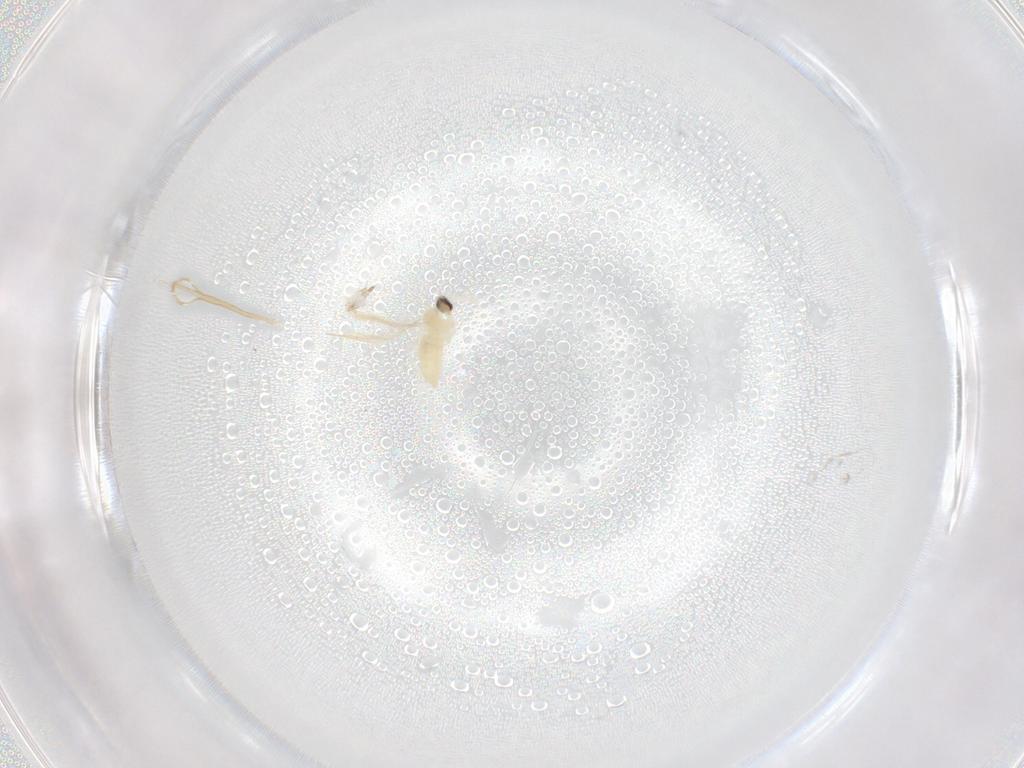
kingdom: Animalia
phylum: Arthropoda
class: Insecta
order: Diptera
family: Cecidomyiidae
